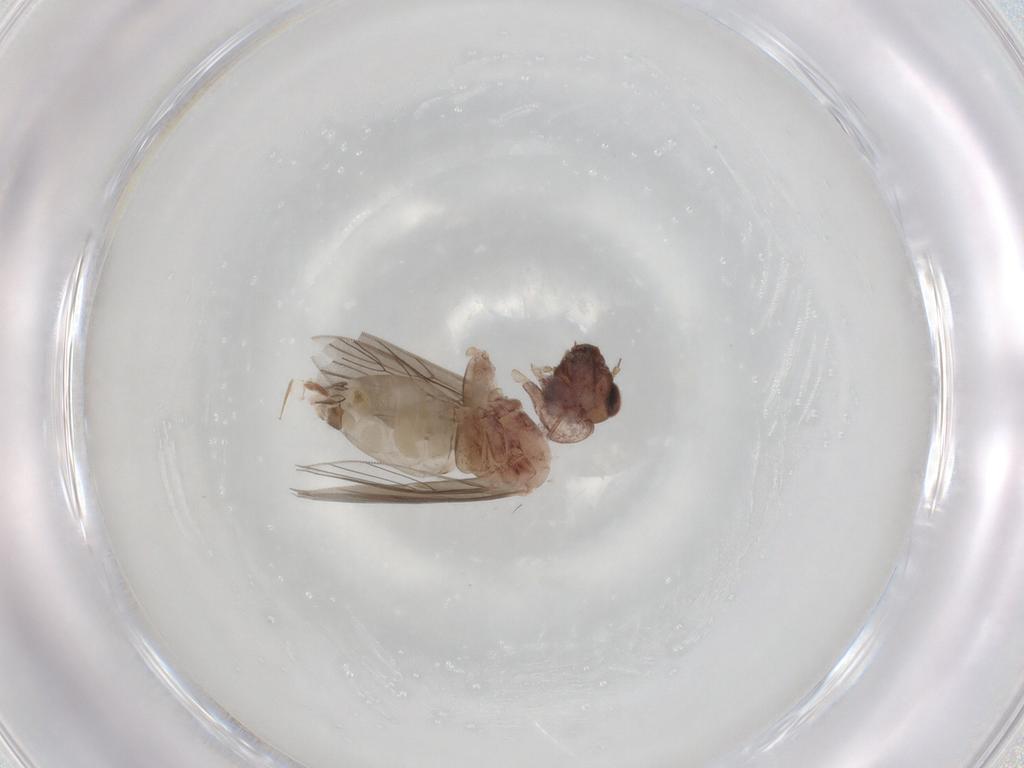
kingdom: Animalia
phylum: Arthropoda
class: Insecta
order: Psocodea
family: Lepidopsocidae
